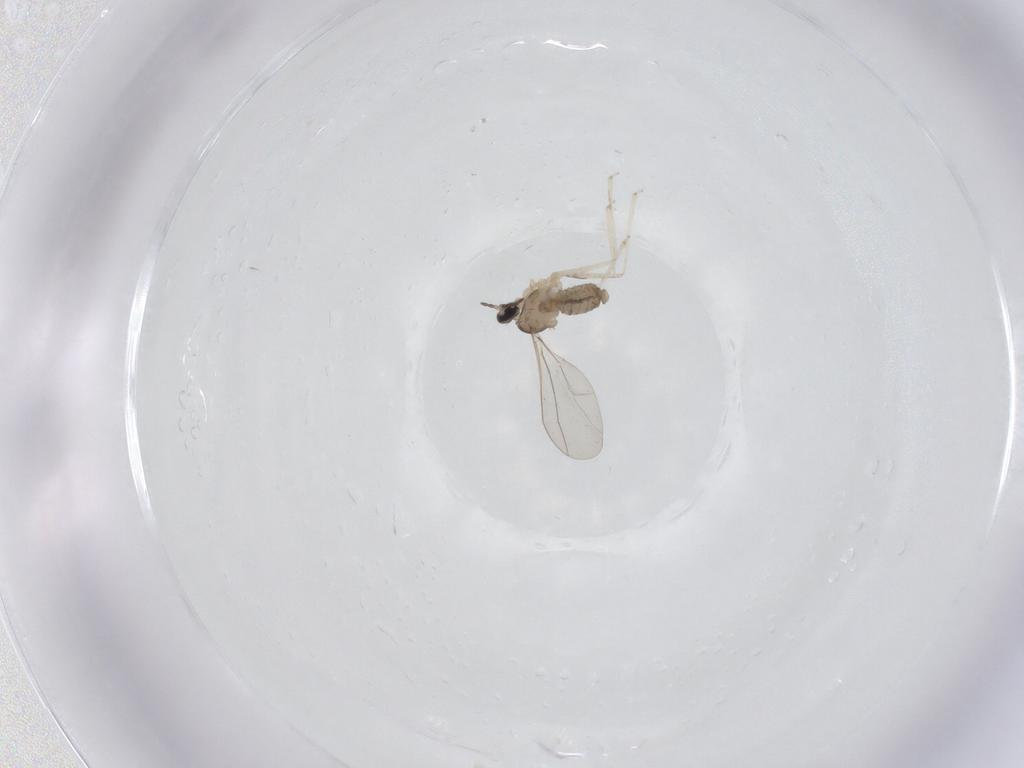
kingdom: Animalia
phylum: Arthropoda
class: Insecta
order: Diptera
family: Cecidomyiidae
